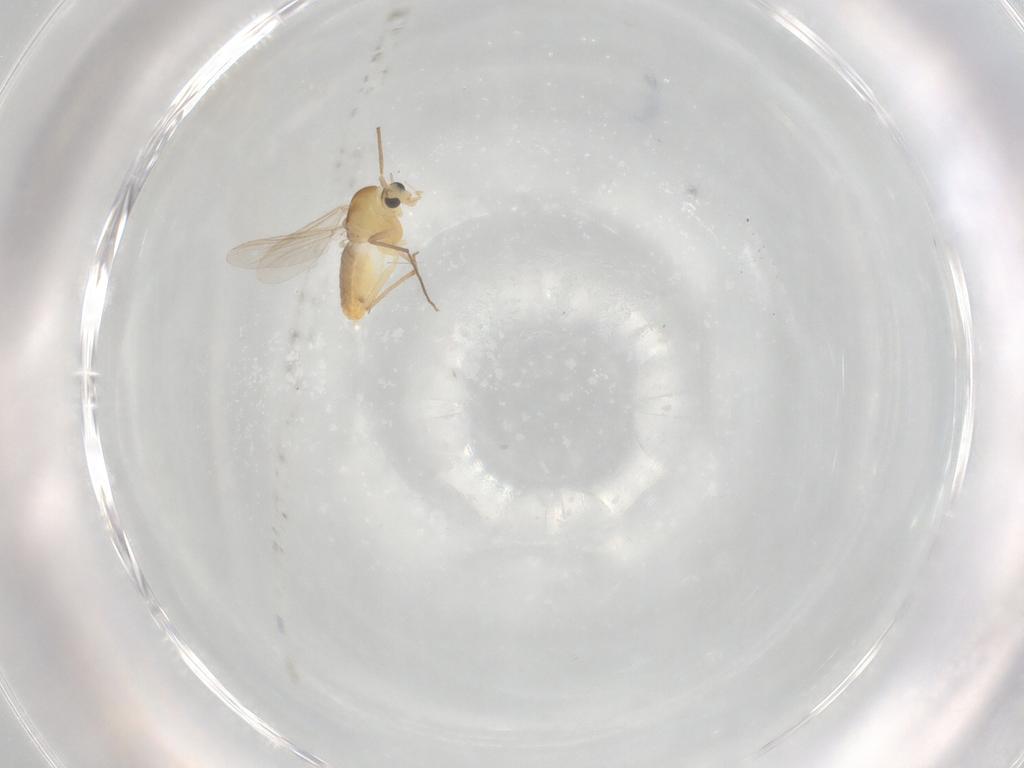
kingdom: Animalia
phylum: Arthropoda
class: Insecta
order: Diptera
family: Chironomidae
